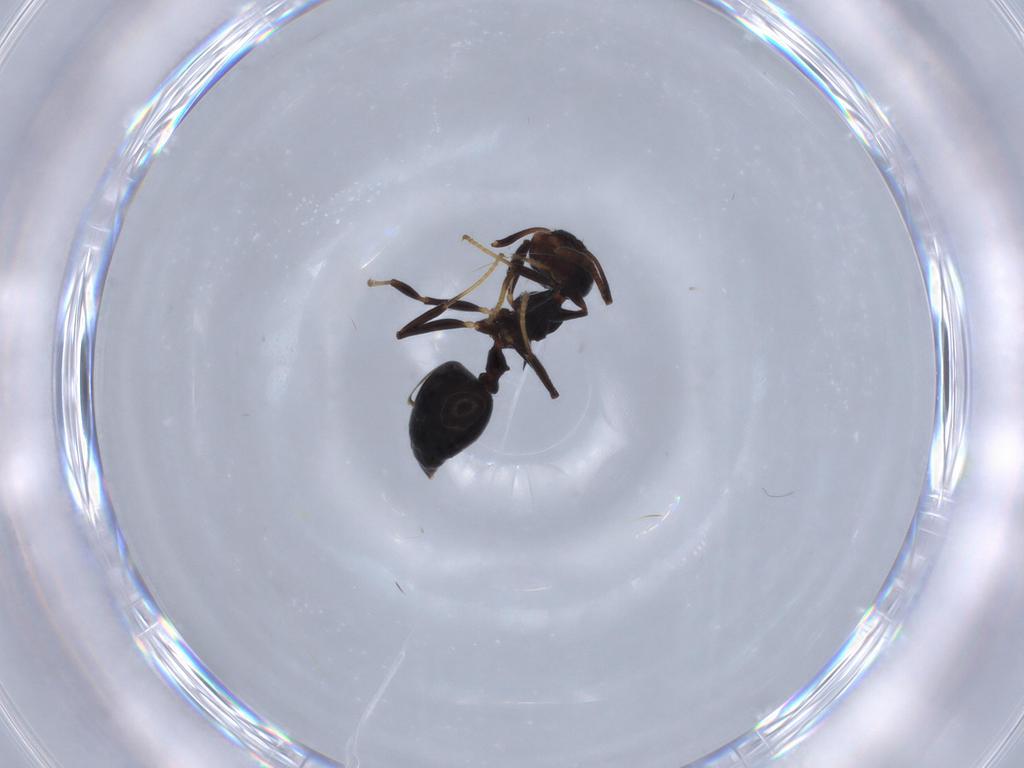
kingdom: Animalia
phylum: Arthropoda
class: Insecta
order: Hymenoptera
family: Formicidae
